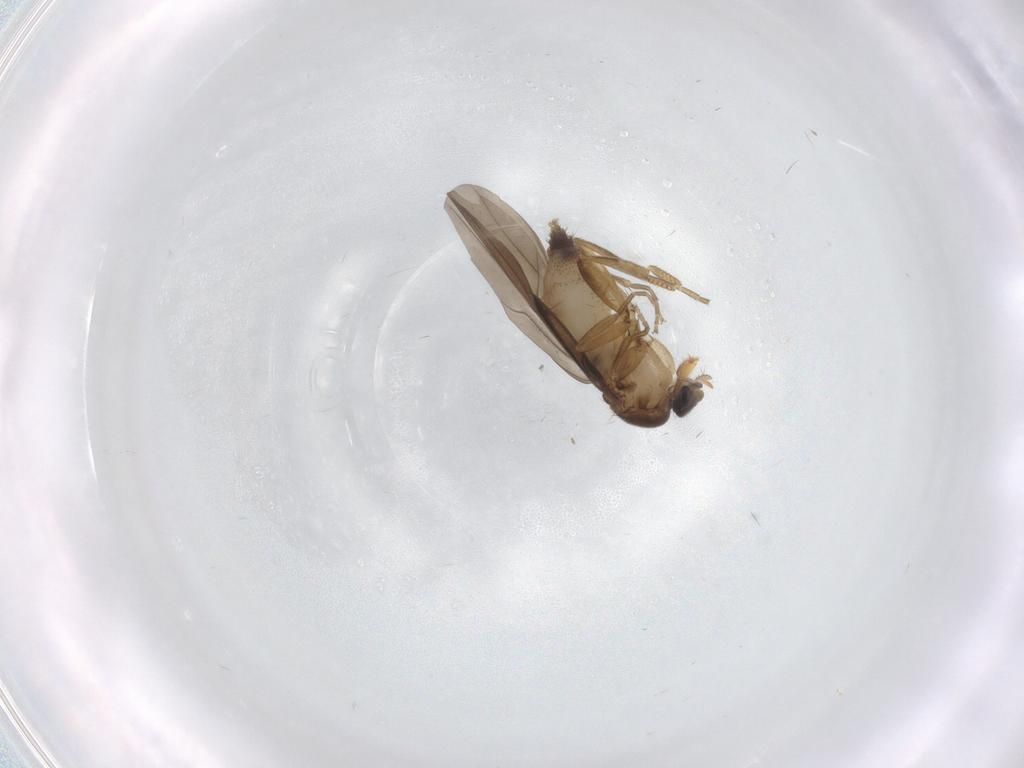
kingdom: Animalia
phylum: Arthropoda
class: Insecta
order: Diptera
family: Phoridae
